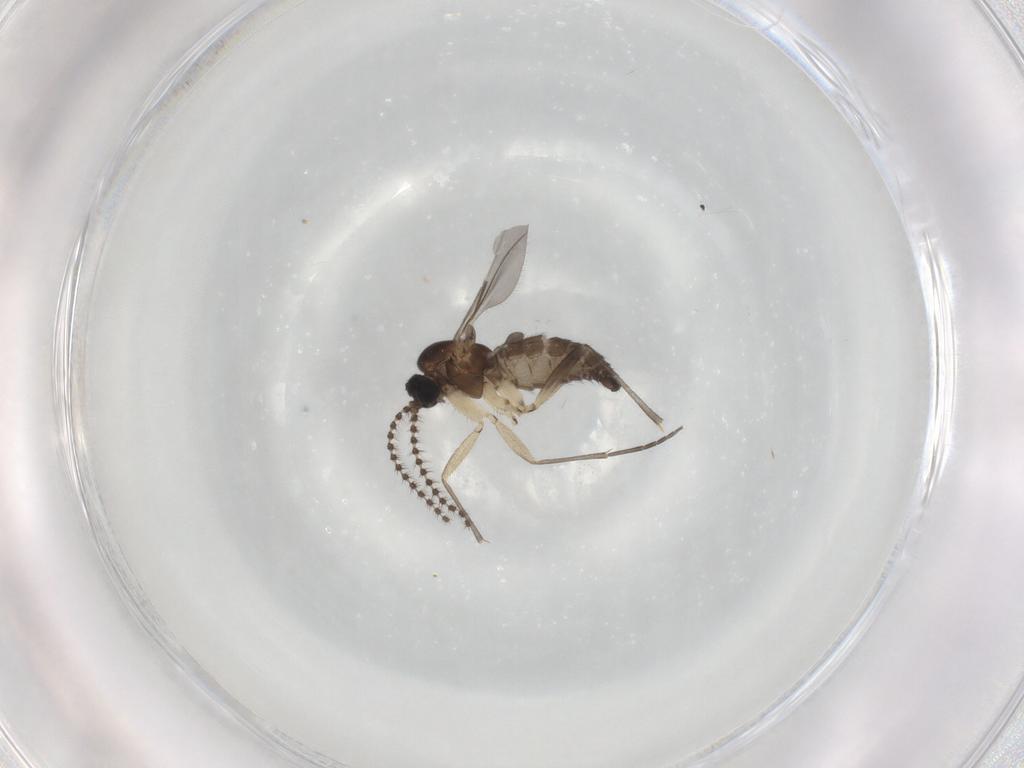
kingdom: Animalia
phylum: Arthropoda
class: Insecta
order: Diptera
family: Sciaridae
